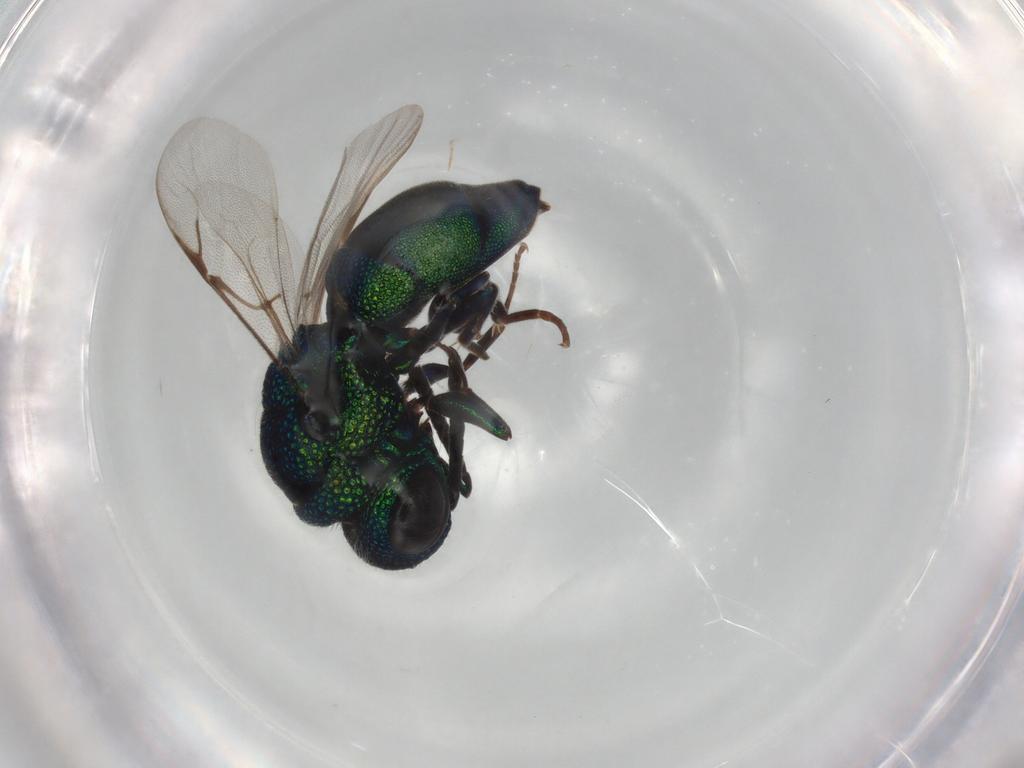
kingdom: Animalia
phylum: Arthropoda
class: Insecta
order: Hymenoptera
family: Chrysididae
